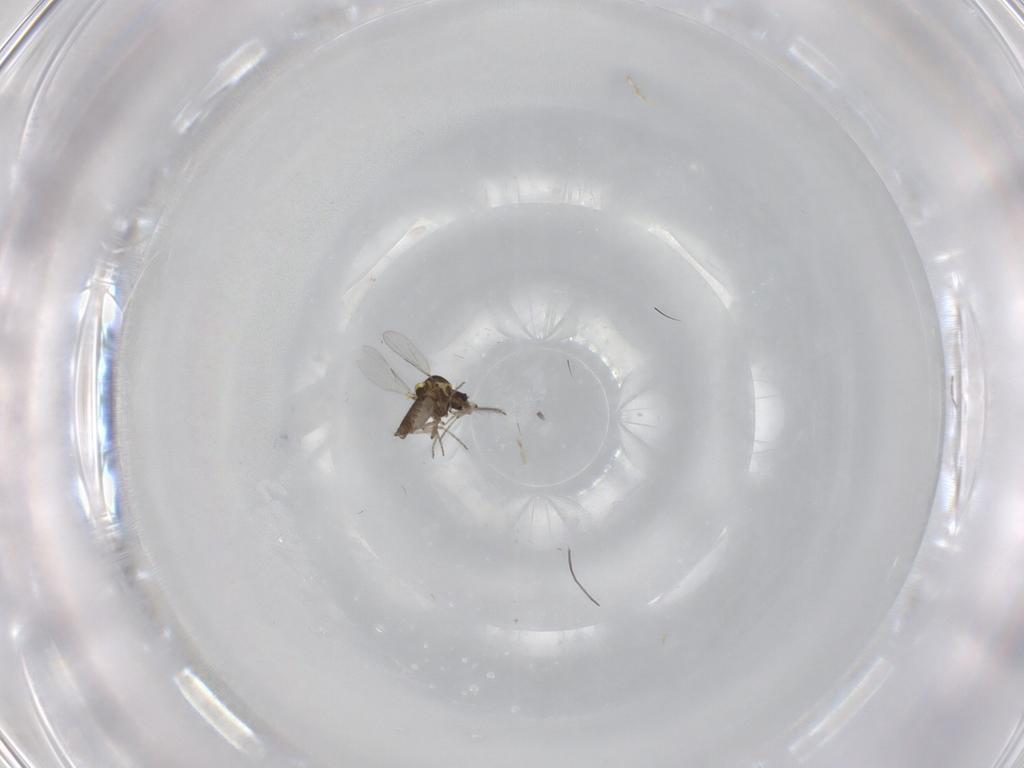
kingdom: Animalia
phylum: Arthropoda
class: Insecta
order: Diptera
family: Ceratopogonidae
